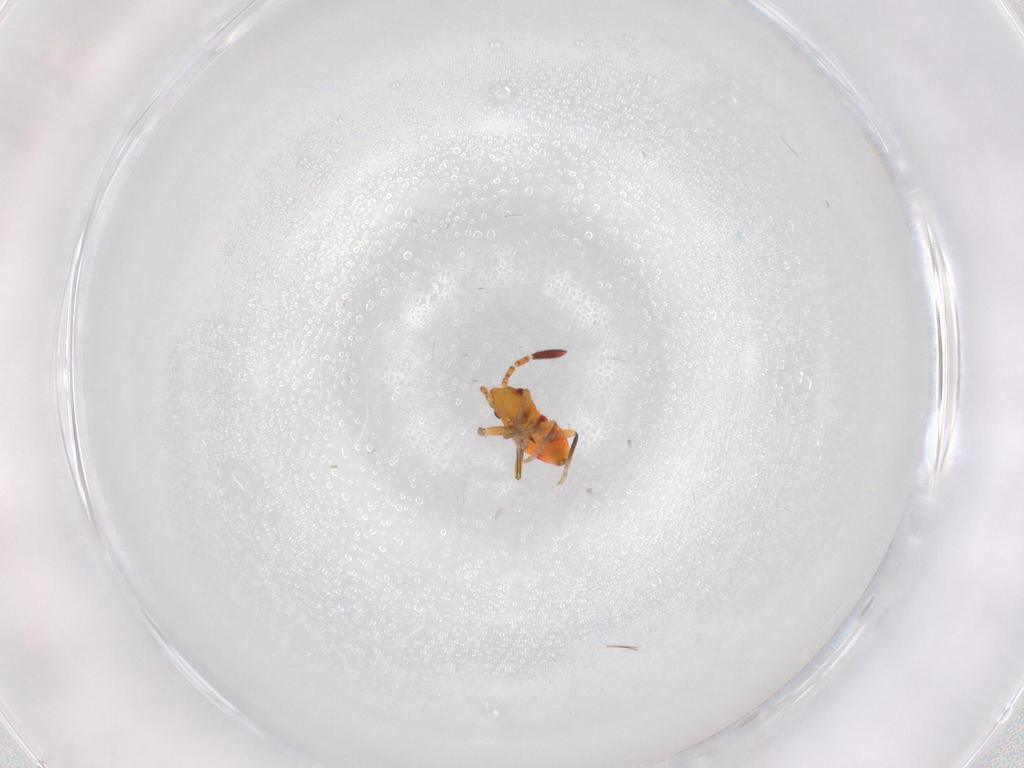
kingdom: Animalia
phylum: Arthropoda
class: Insecta
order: Hemiptera
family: Rhyparochromidae
